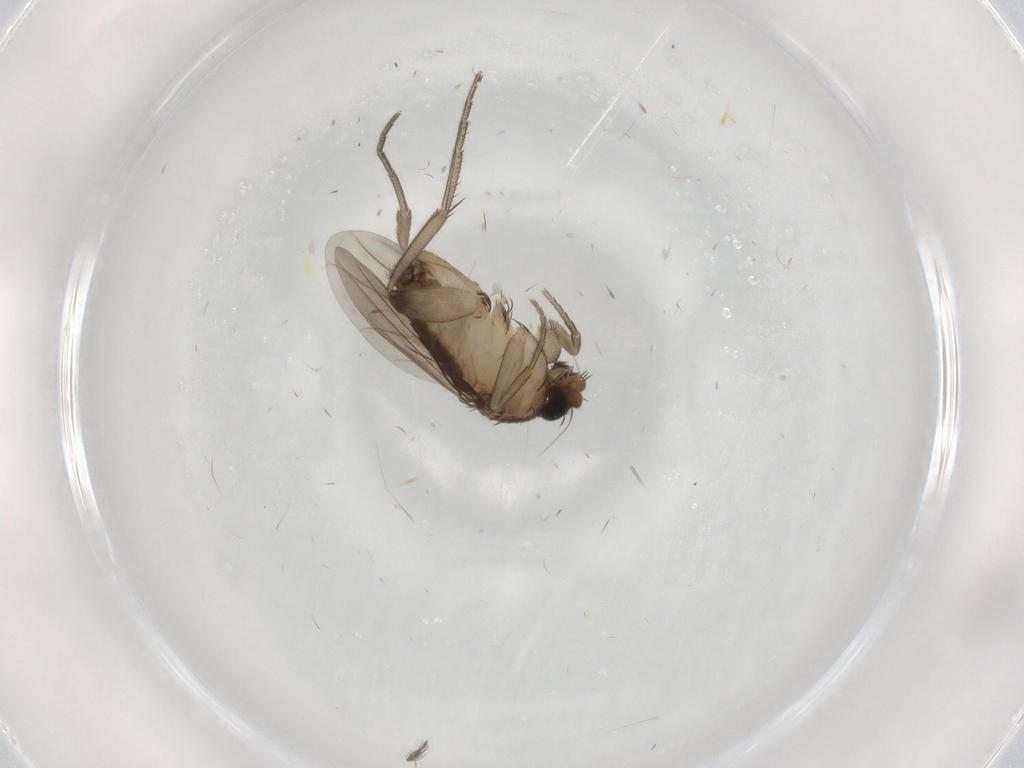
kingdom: Animalia
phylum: Arthropoda
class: Insecta
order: Diptera
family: Phoridae
